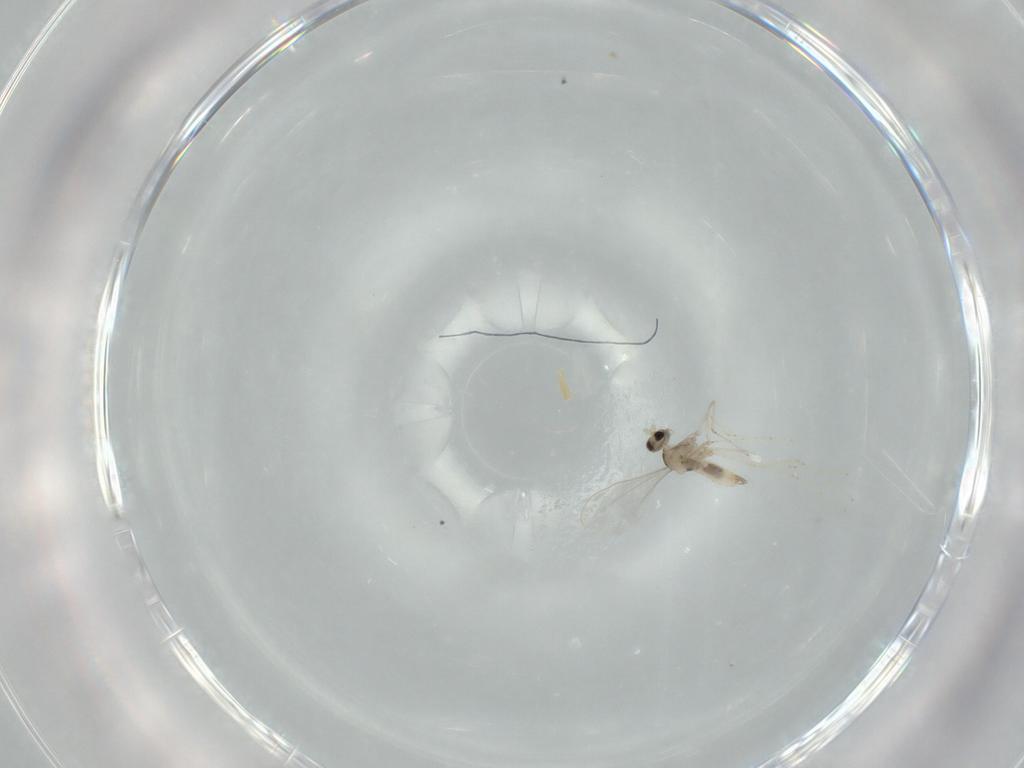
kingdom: Animalia
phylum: Arthropoda
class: Insecta
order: Diptera
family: Cecidomyiidae
